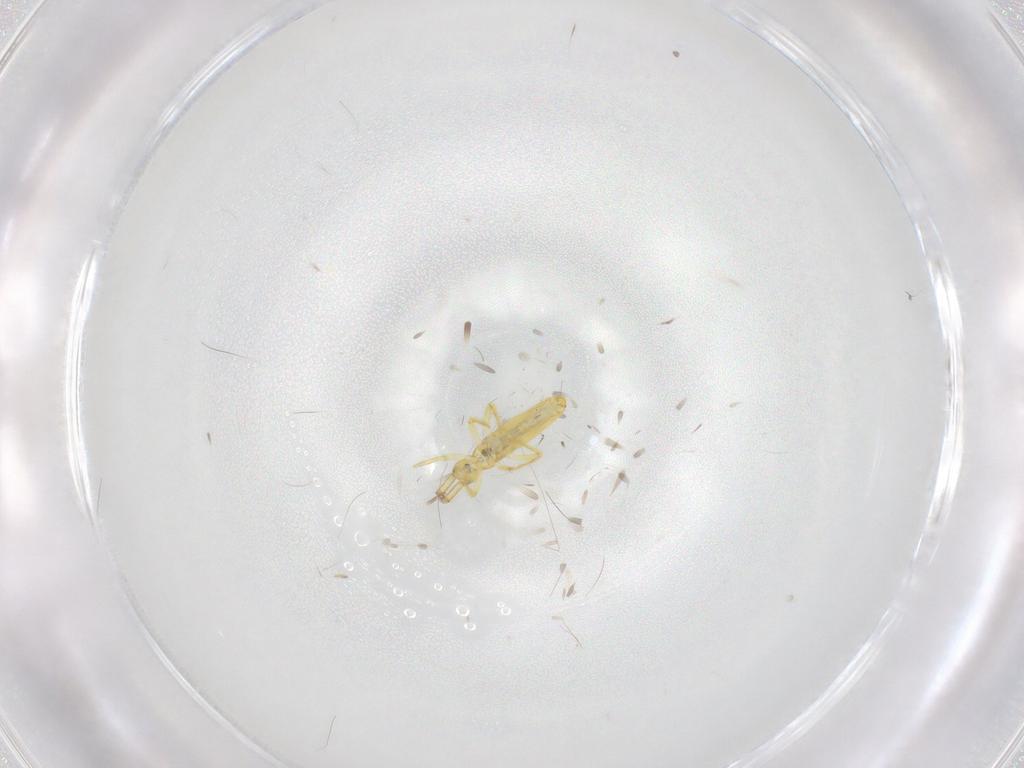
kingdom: Animalia
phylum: Arthropoda
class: Collembola
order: Entomobryomorpha
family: Paronellidae
